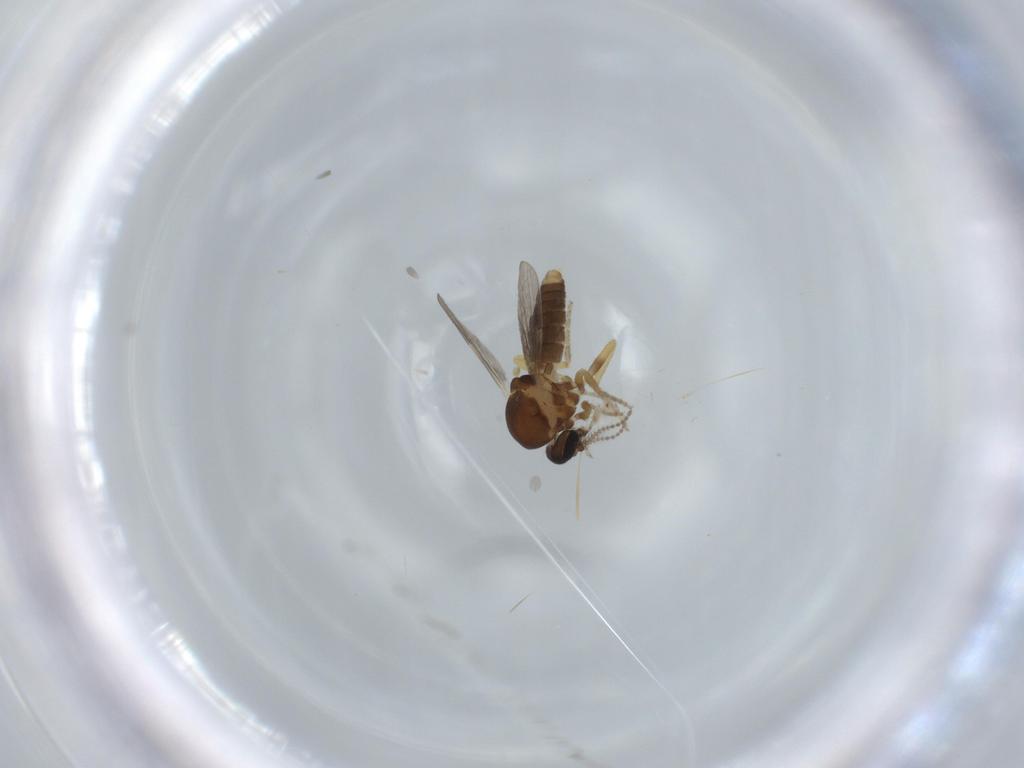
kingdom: Animalia
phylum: Arthropoda
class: Insecta
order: Diptera
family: Ceratopogonidae
